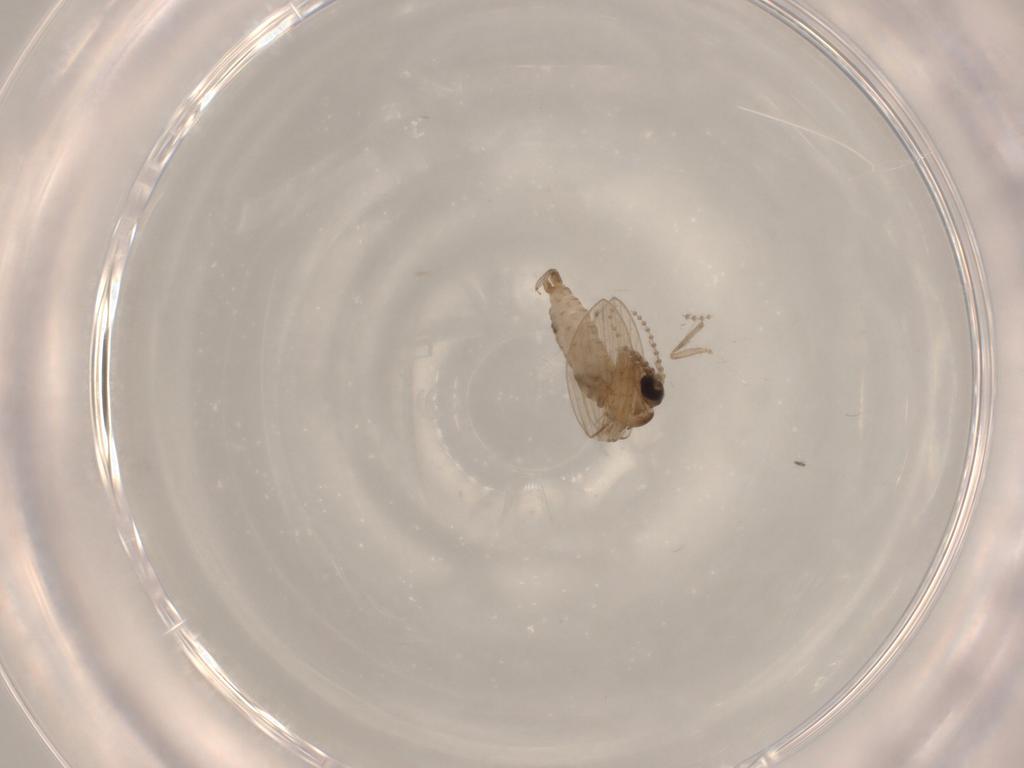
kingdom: Animalia
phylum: Arthropoda
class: Insecta
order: Diptera
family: Psychodidae
